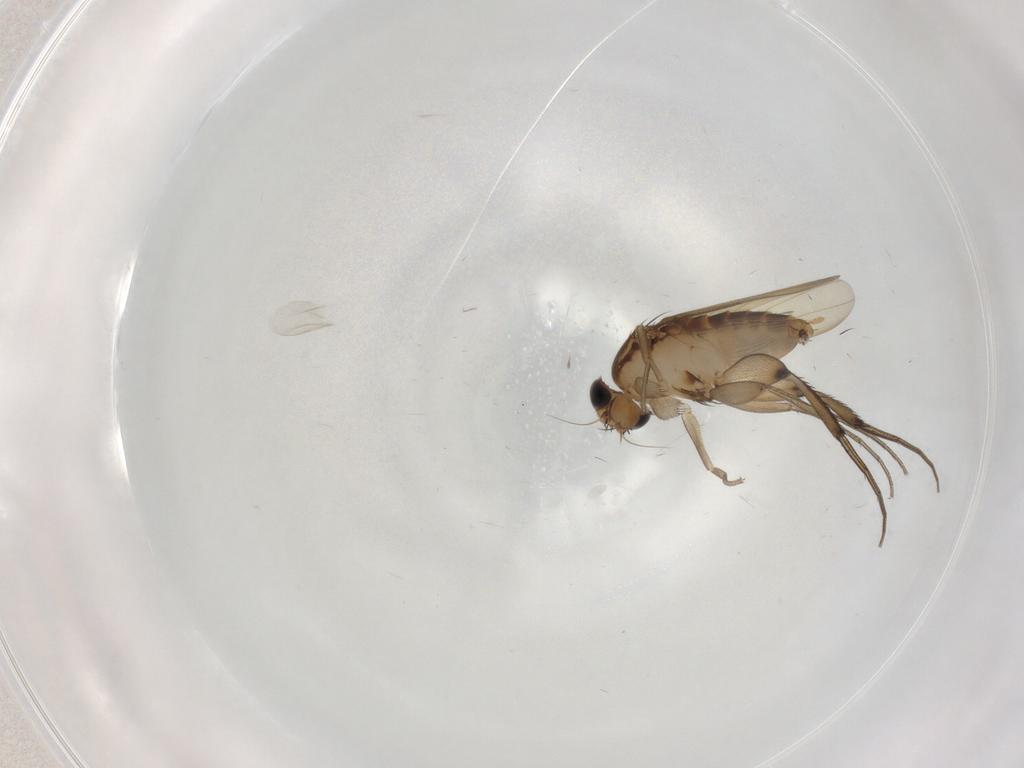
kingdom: Animalia
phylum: Arthropoda
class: Insecta
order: Diptera
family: Phoridae
